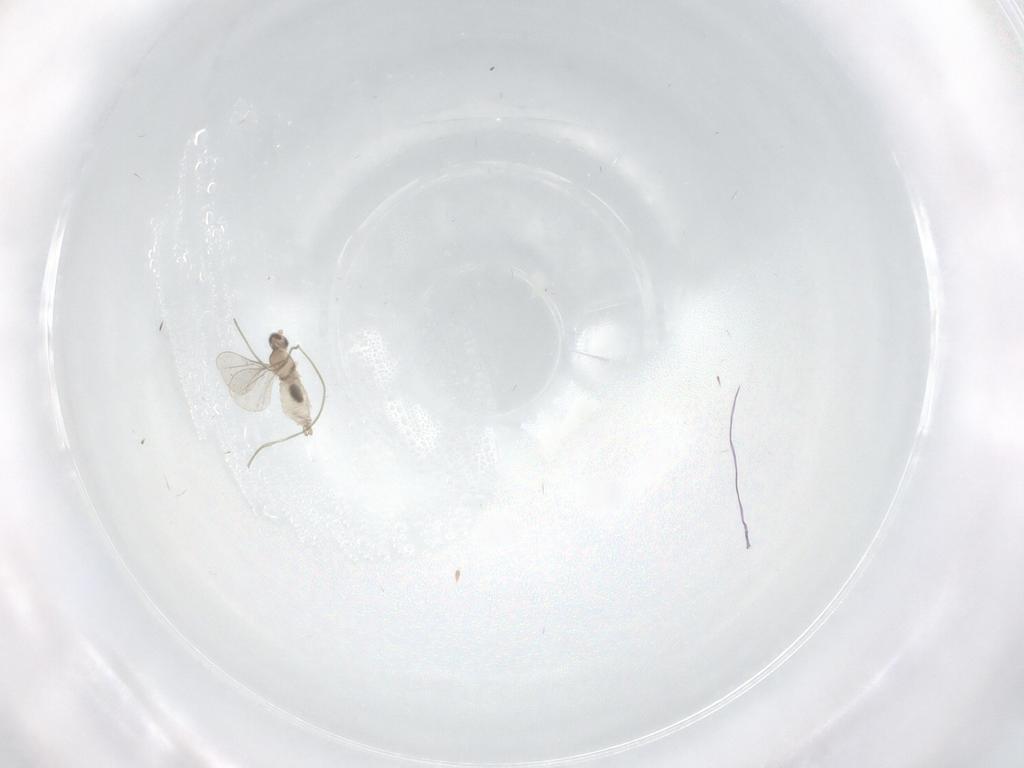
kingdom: Animalia
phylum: Arthropoda
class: Insecta
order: Diptera
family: Cecidomyiidae
